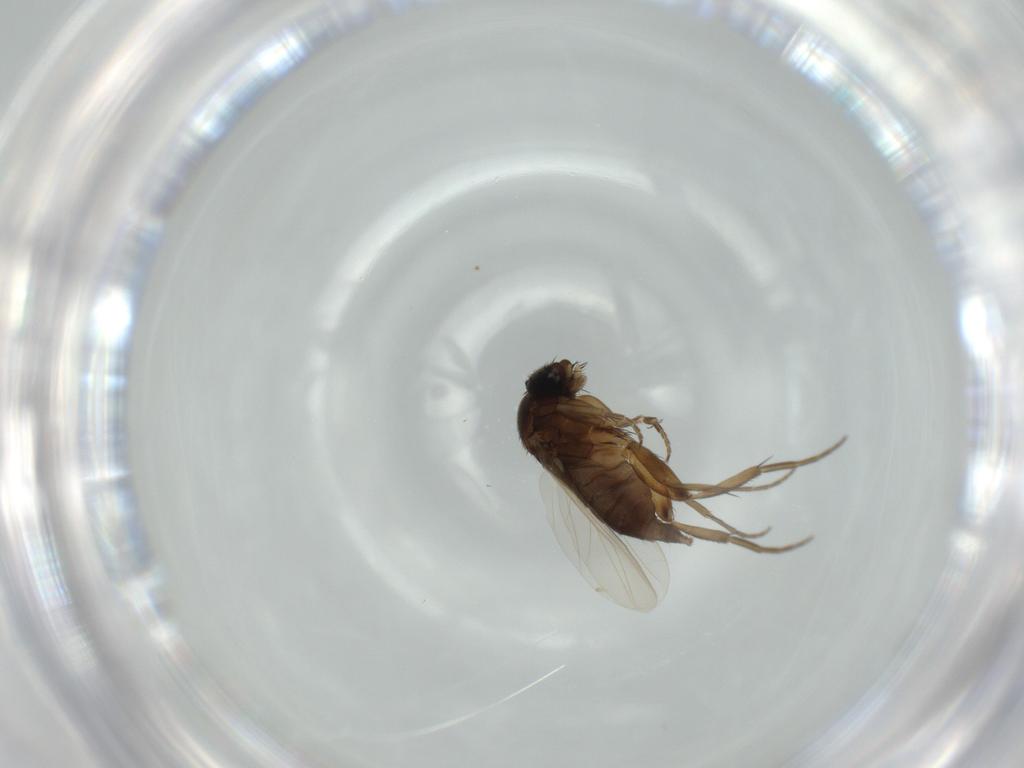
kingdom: Animalia
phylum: Arthropoda
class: Insecta
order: Diptera
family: Phoridae
